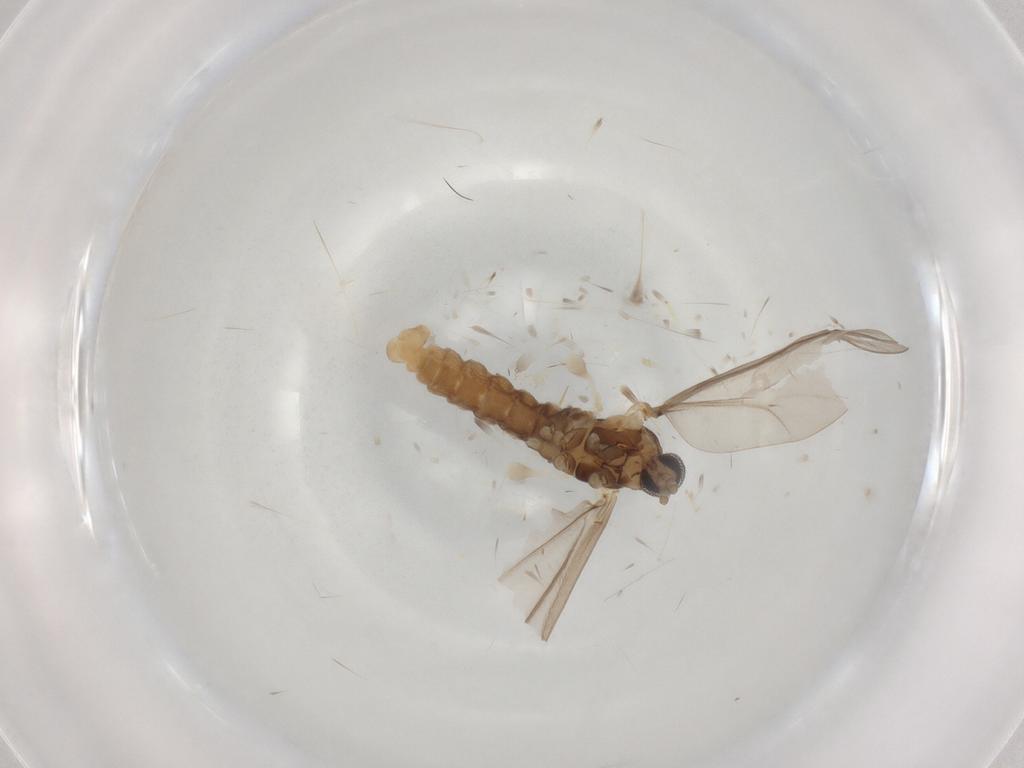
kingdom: Animalia
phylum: Arthropoda
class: Insecta
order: Diptera
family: Cecidomyiidae
